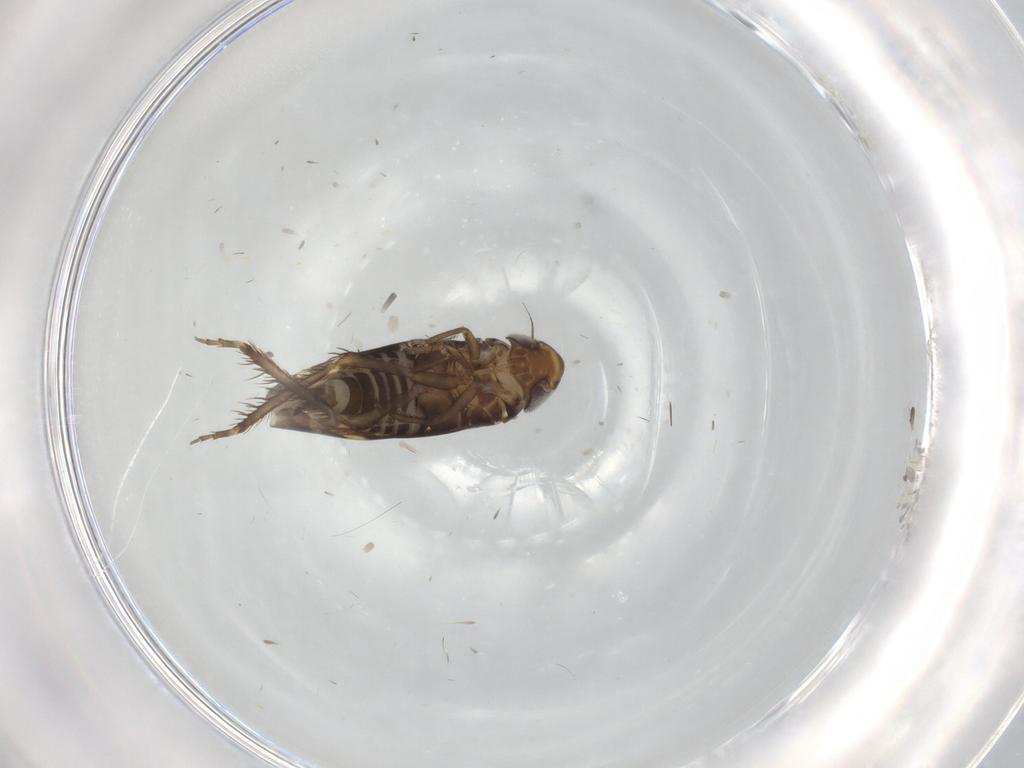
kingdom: Animalia
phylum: Arthropoda
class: Insecta
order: Hemiptera
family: Cicadellidae
